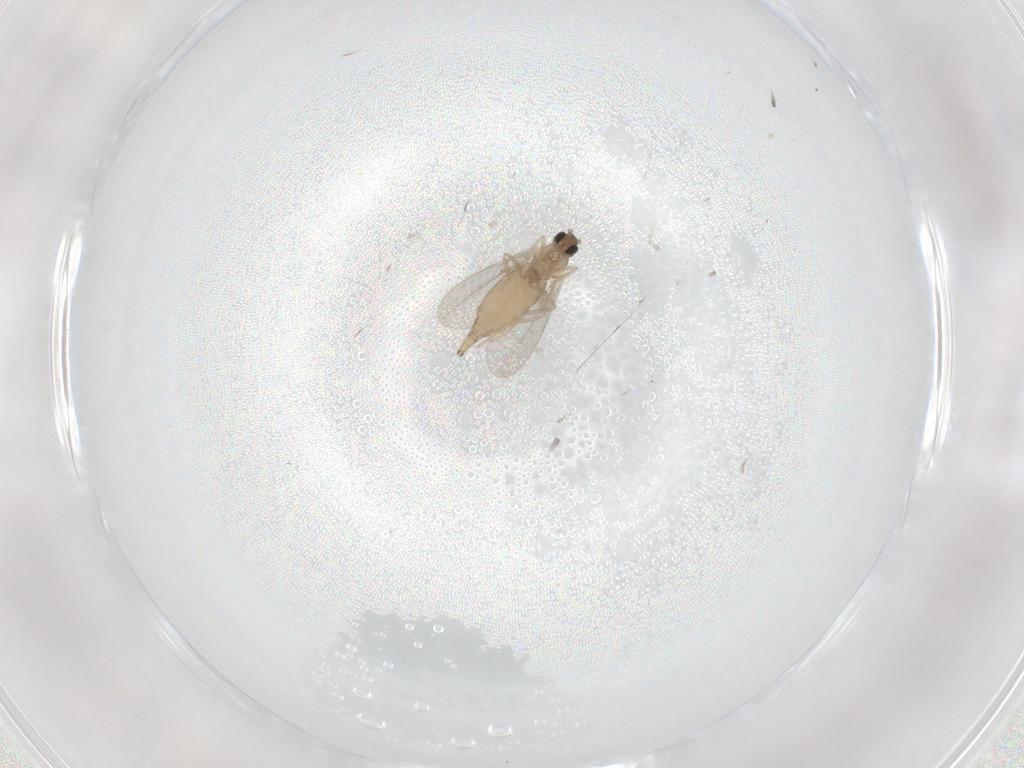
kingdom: Animalia
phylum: Arthropoda
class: Insecta
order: Diptera
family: Cecidomyiidae
